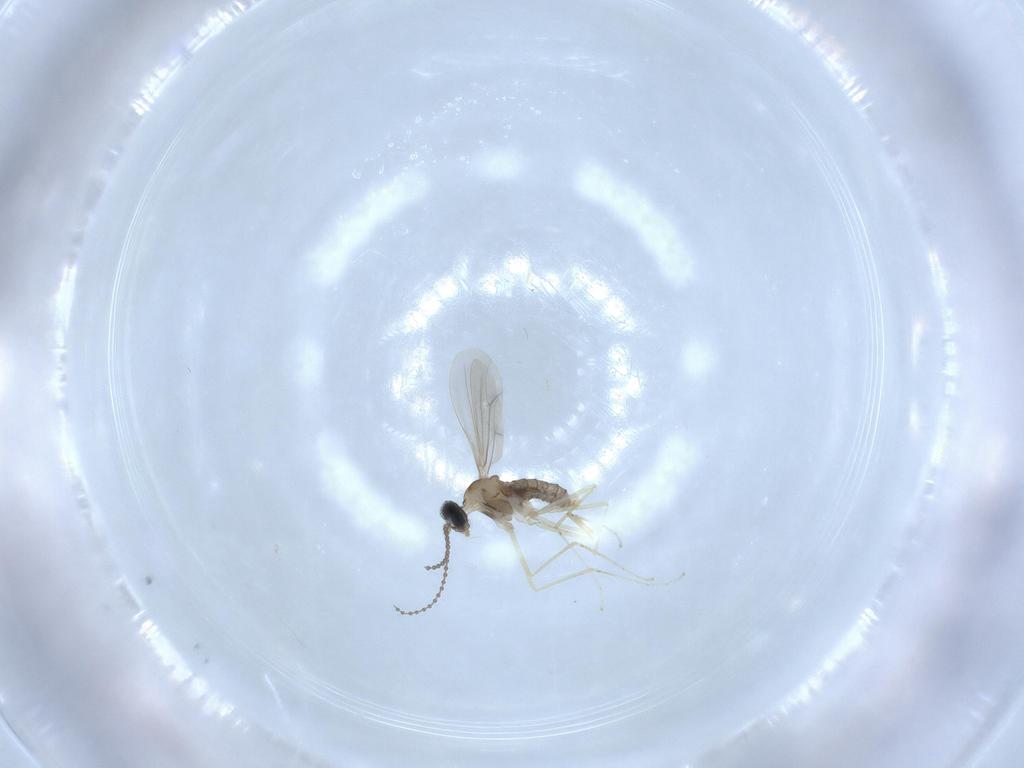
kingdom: Animalia
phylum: Arthropoda
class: Insecta
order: Diptera
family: Cecidomyiidae
